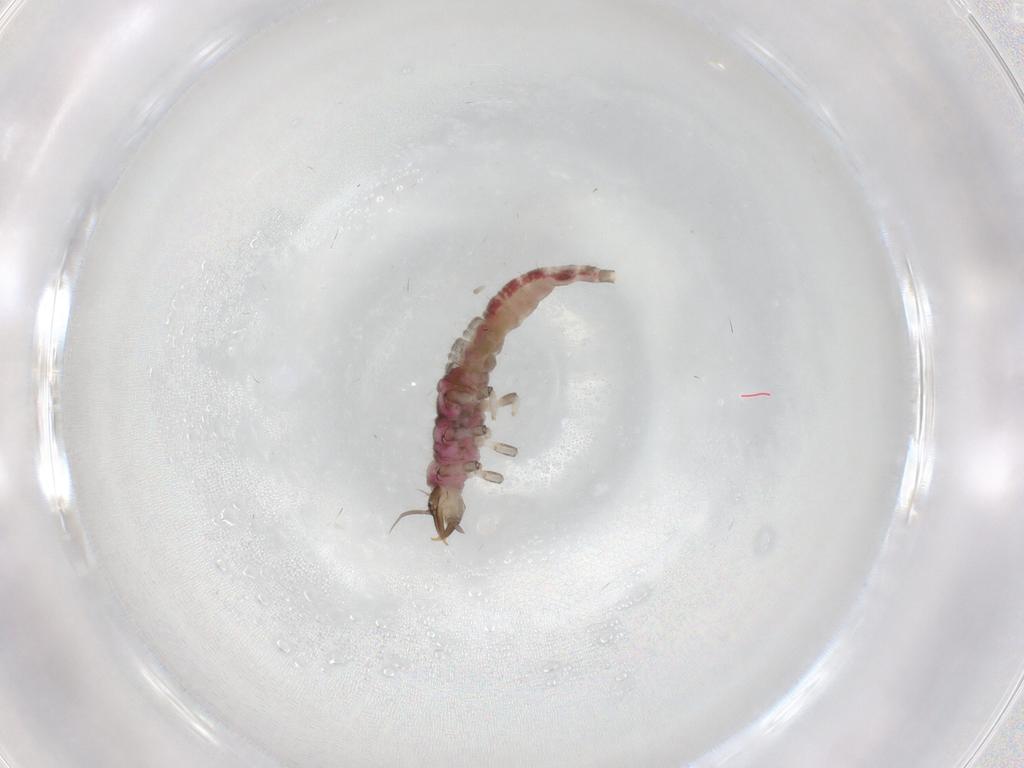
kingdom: Animalia
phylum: Arthropoda
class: Insecta
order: Neuroptera
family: Hemerobiidae
